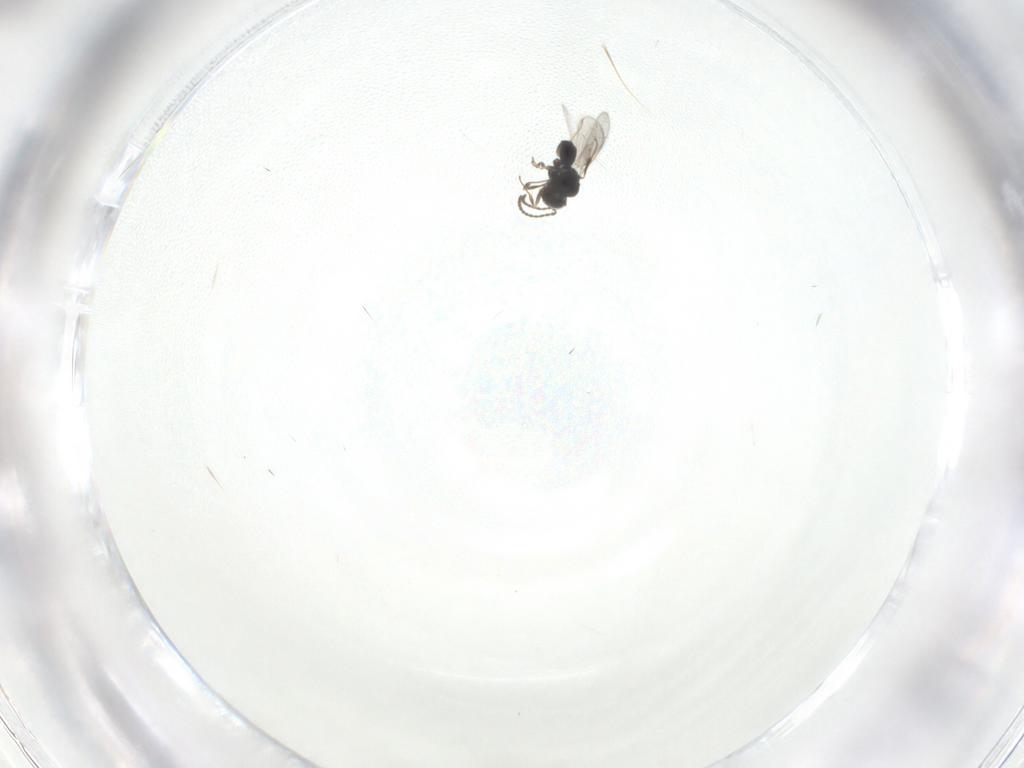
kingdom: Animalia
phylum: Arthropoda
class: Insecta
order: Hymenoptera
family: Scelionidae
